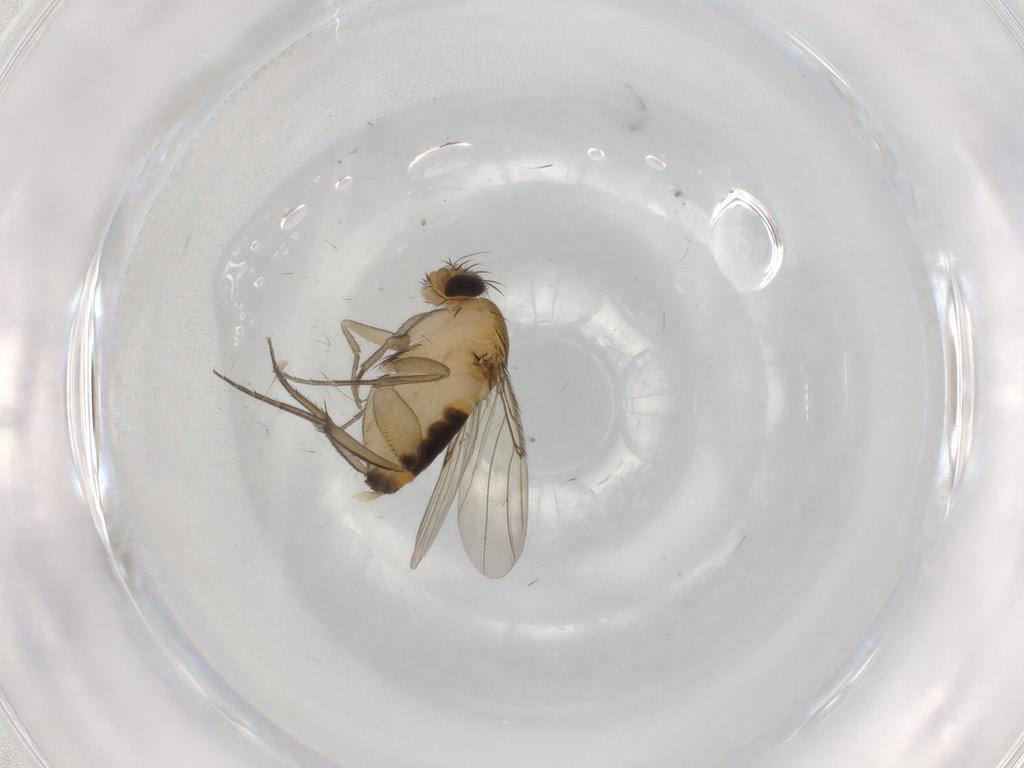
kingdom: Animalia
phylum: Arthropoda
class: Insecta
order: Diptera
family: Phoridae
